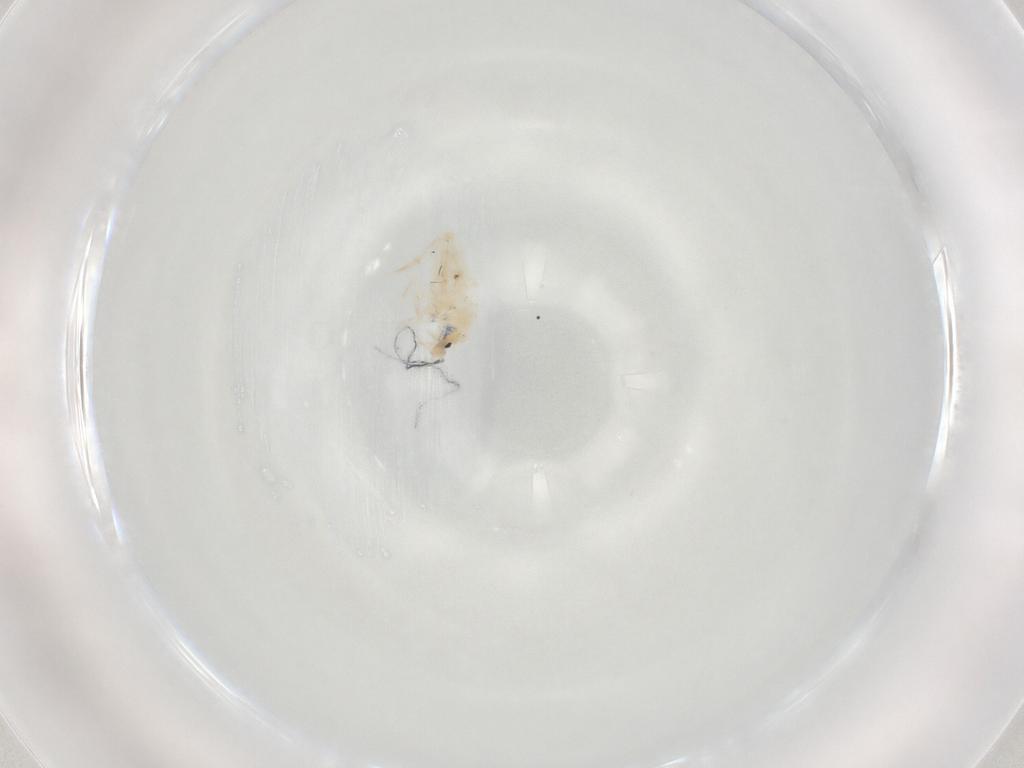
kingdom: Animalia
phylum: Arthropoda
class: Collembola
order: Entomobryomorpha
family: Entomobryidae
